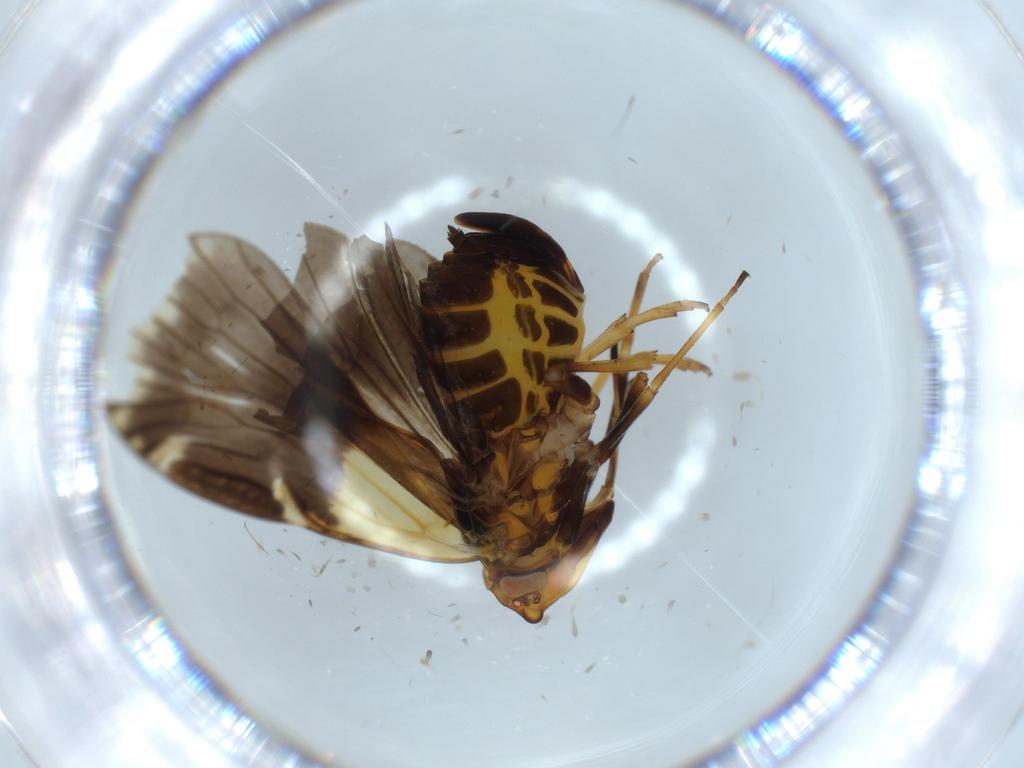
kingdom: Animalia
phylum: Arthropoda
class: Insecta
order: Hemiptera
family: Cixiidae
